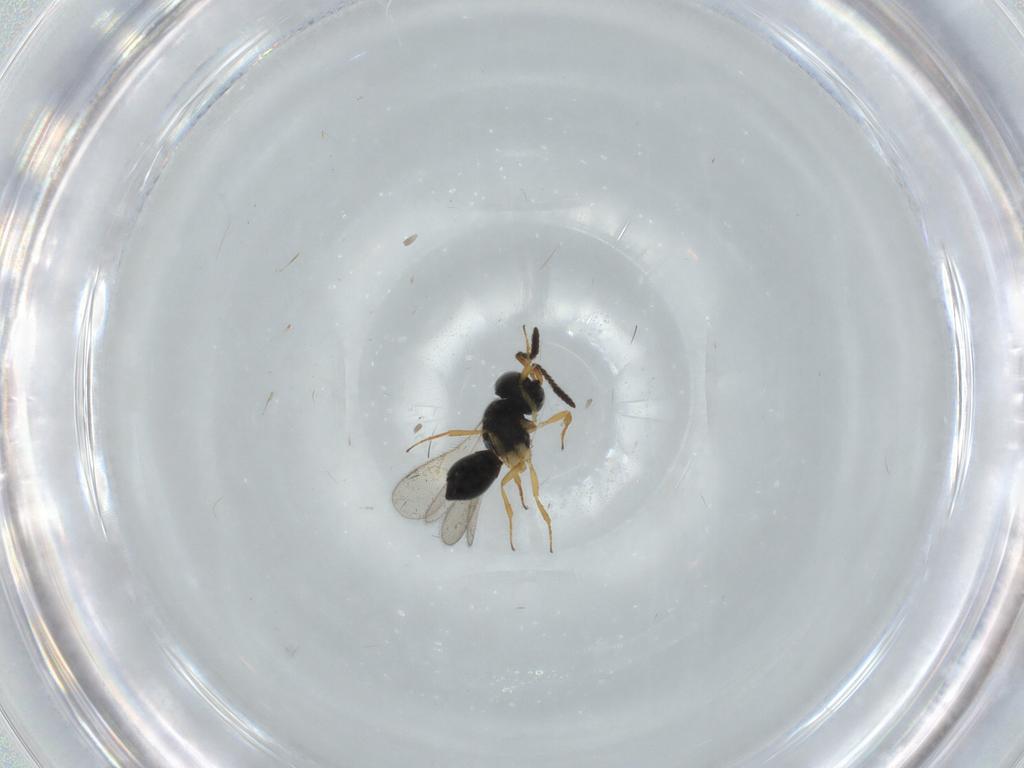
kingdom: Animalia
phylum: Arthropoda
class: Insecta
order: Hymenoptera
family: Scelionidae
